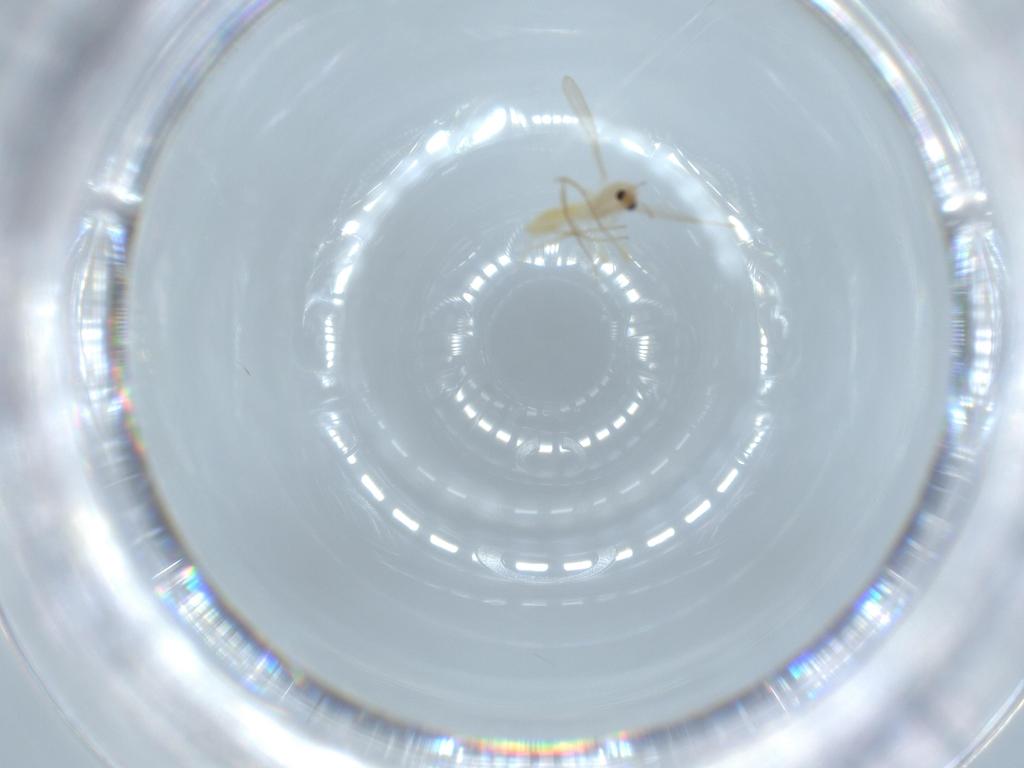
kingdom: Animalia
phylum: Arthropoda
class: Insecta
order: Diptera
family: Chironomidae
